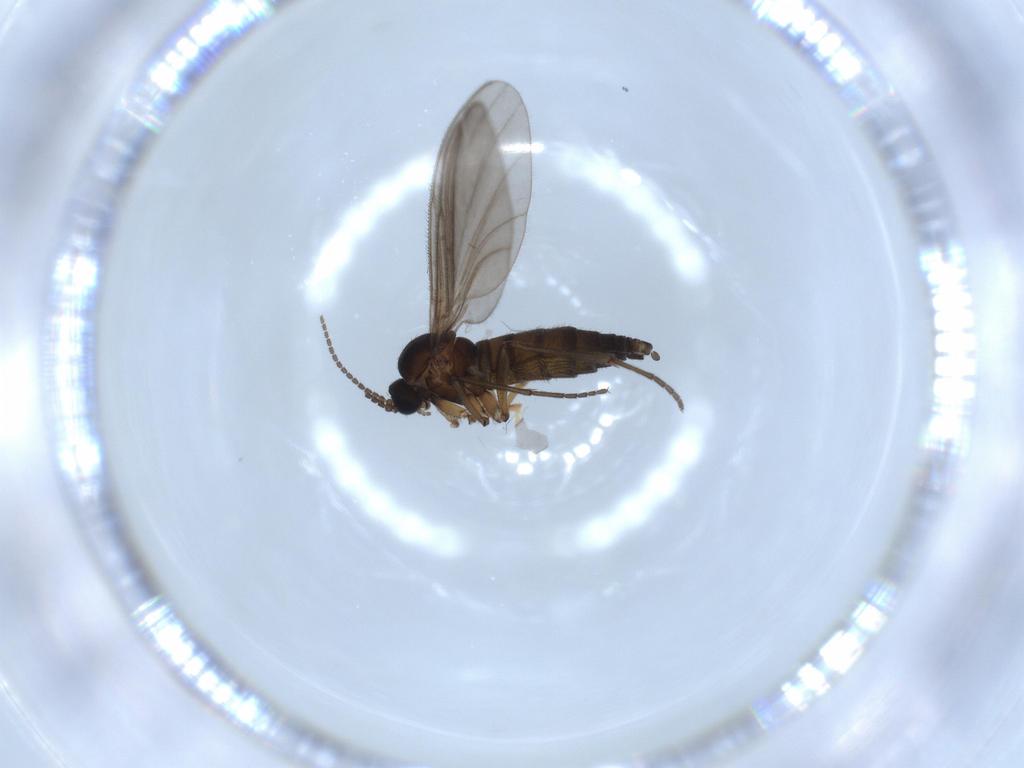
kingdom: Animalia
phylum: Arthropoda
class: Insecta
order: Diptera
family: Sciaridae
